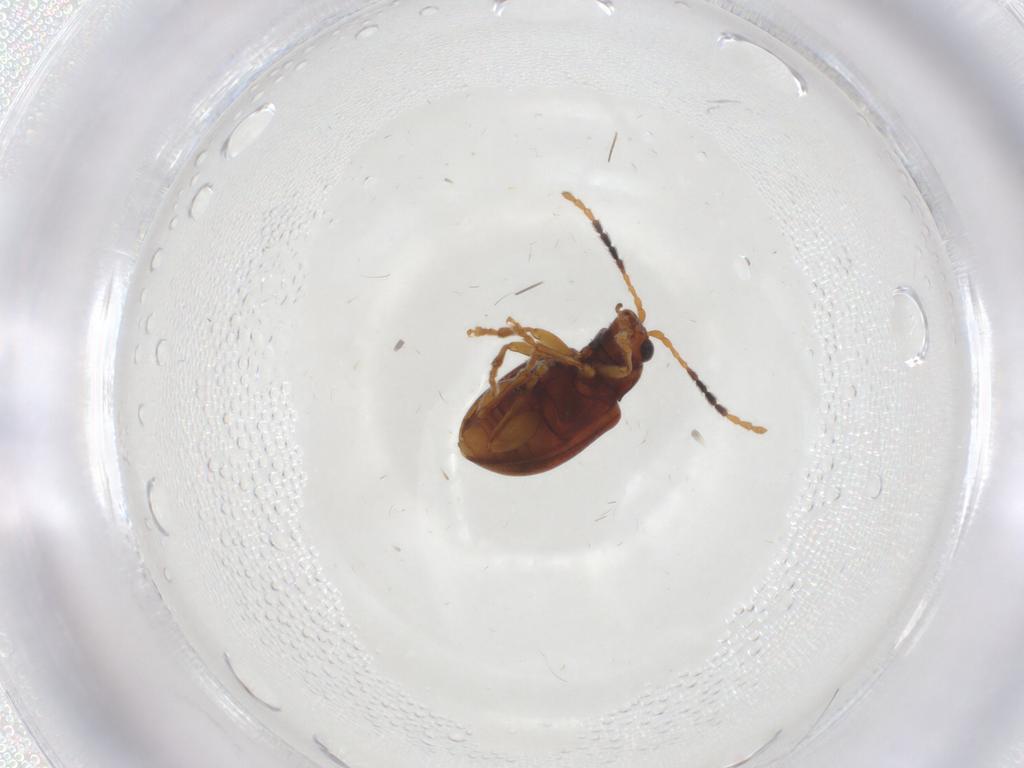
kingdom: Animalia
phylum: Arthropoda
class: Insecta
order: Coleoptera
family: Chrysomelidae
